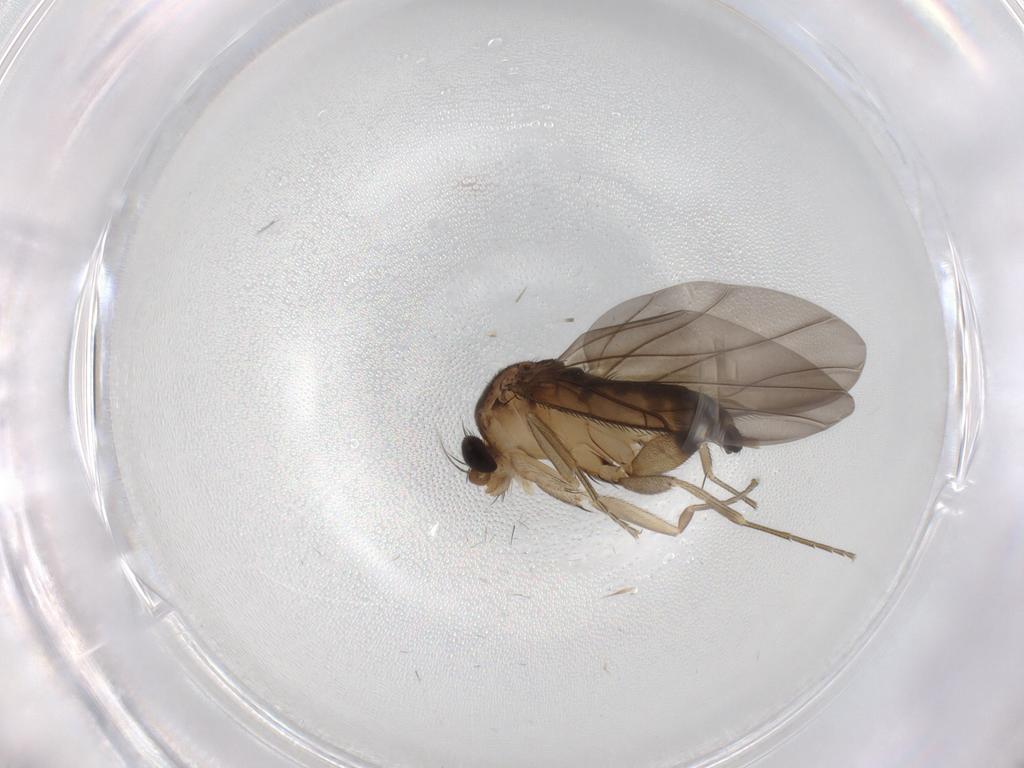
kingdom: Animalia
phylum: Arthropoda
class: Insecta
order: Diptera
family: Phoridae
